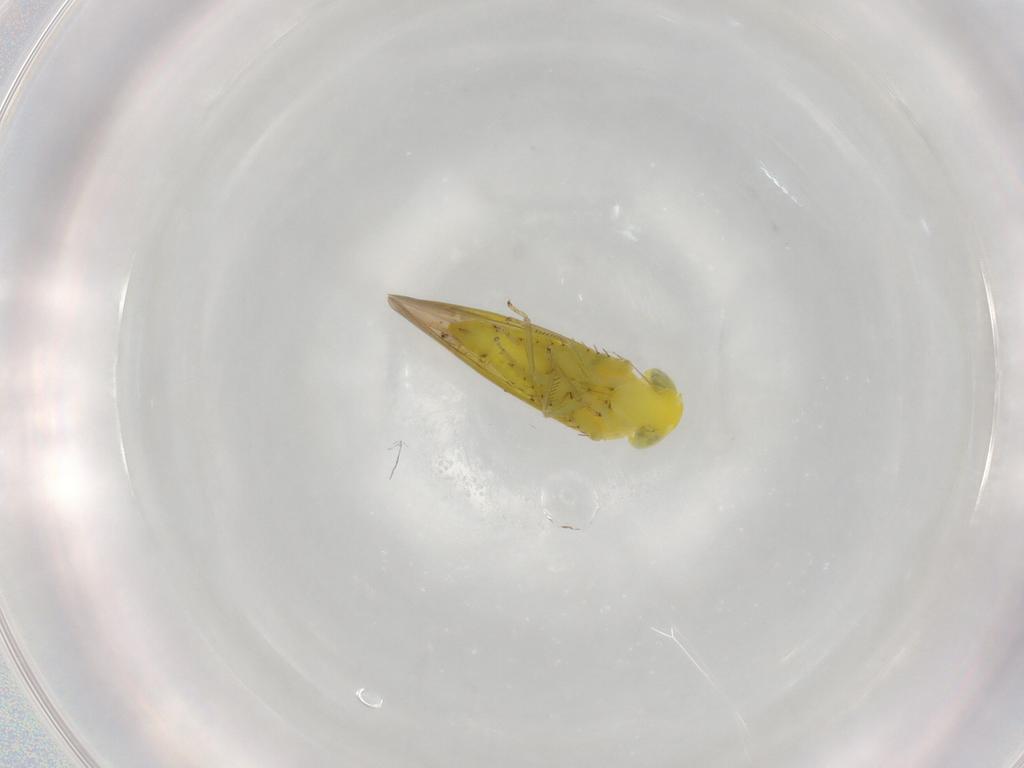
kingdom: Animalia
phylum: Arthropoda
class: Insecta
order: Hemiptera
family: Cicadellidae
